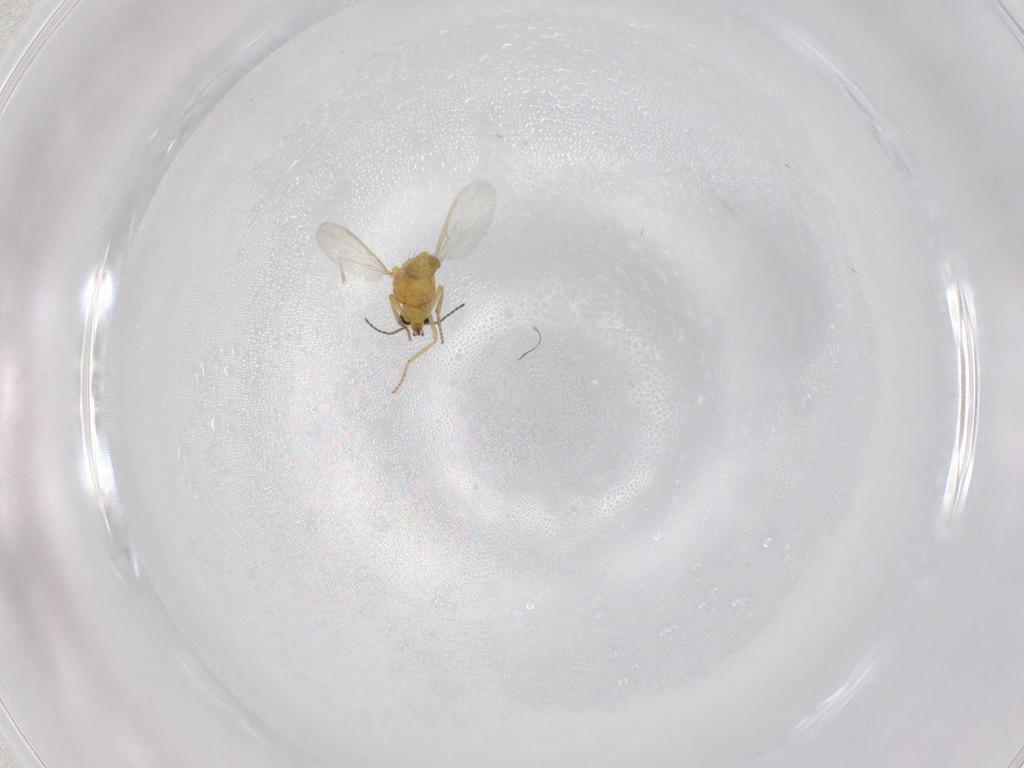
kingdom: Animalia
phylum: Arthropoda
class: Insecta
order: Diptera
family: Ceratopogonidae
